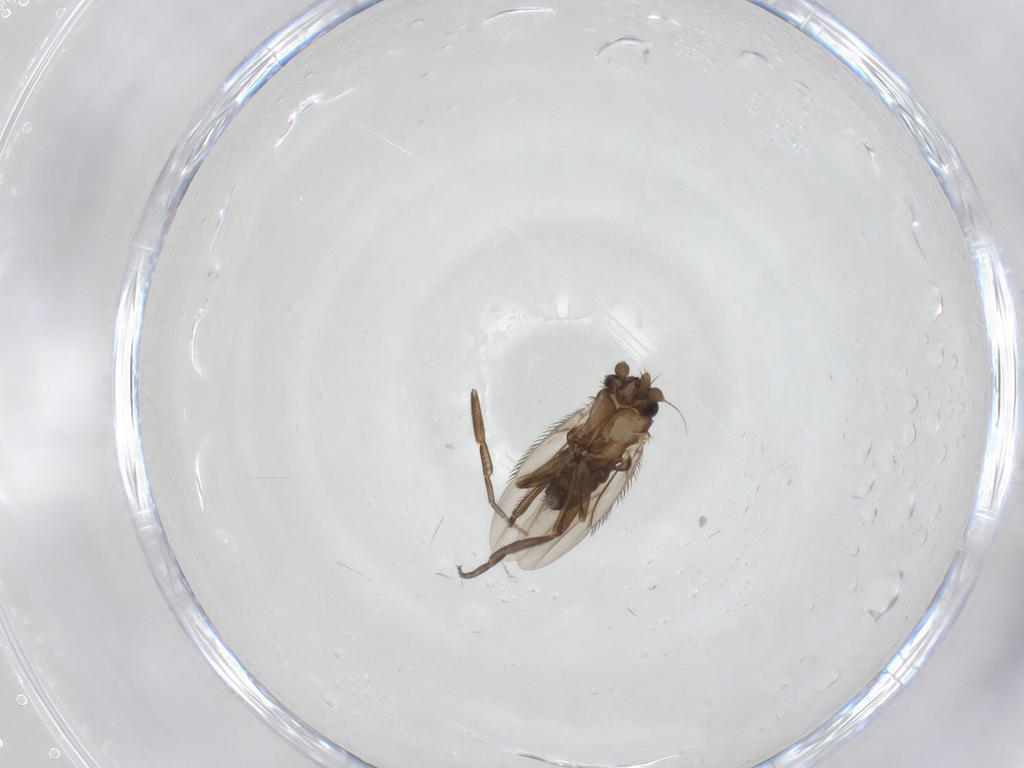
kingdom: Animalia
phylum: Arthropoda
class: Insecta
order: Diptera
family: Phoridae
